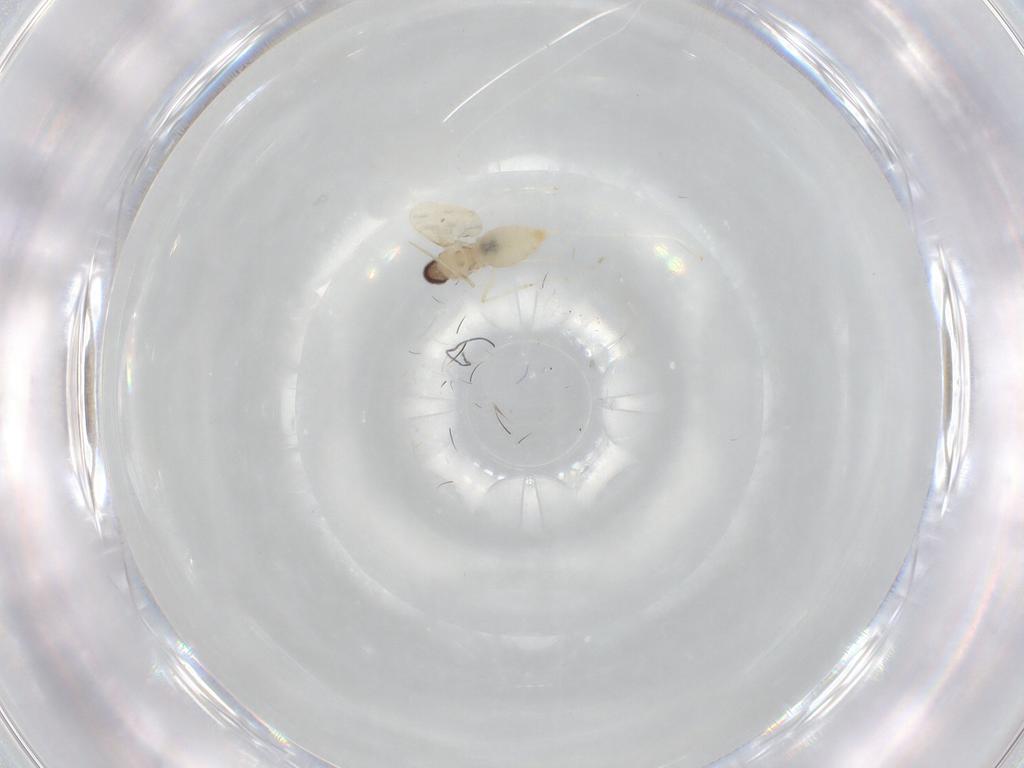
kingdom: Animalia
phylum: Arthropoda
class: Insecta
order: Diptera
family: Cecidomyiidae
